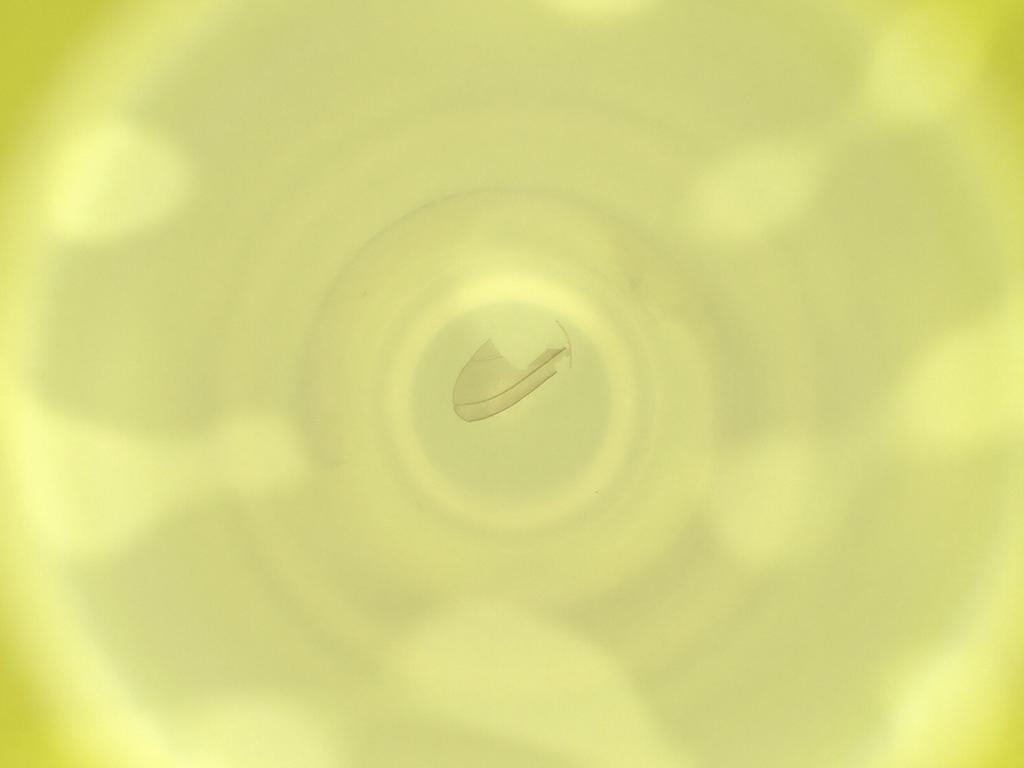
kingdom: Animalia
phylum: Arthropoda
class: Insecta
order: Diptera
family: Cecidomyiidae
